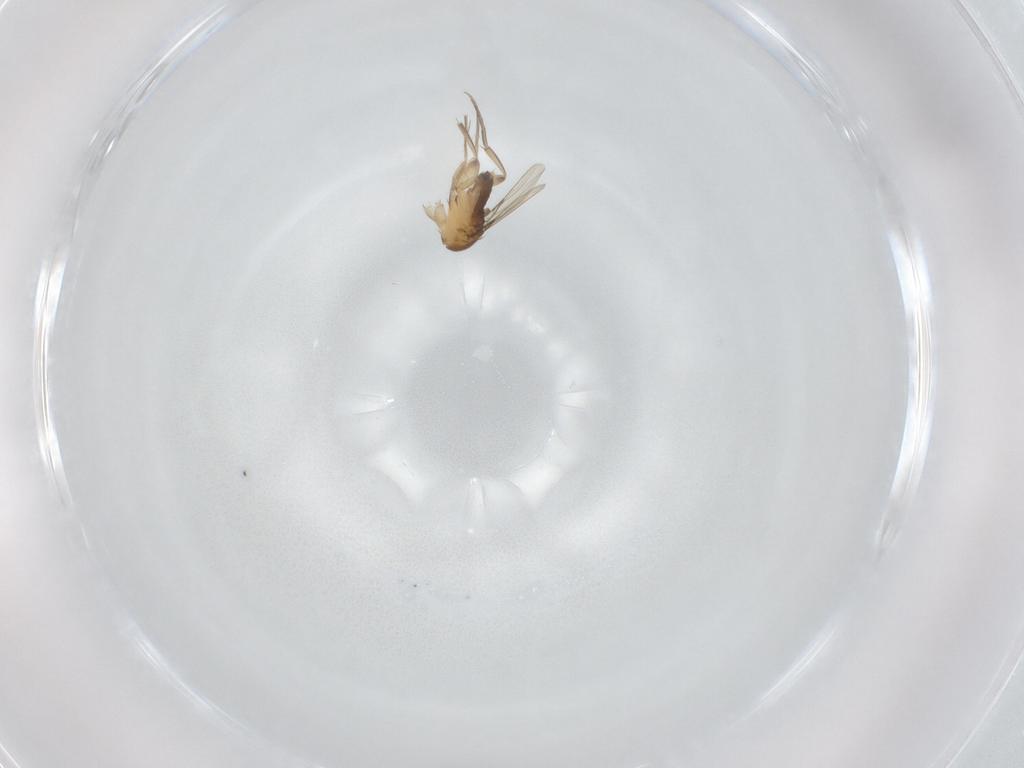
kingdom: Animalia
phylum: Arthropoda
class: Insecta
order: Diptera
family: Phoridae
